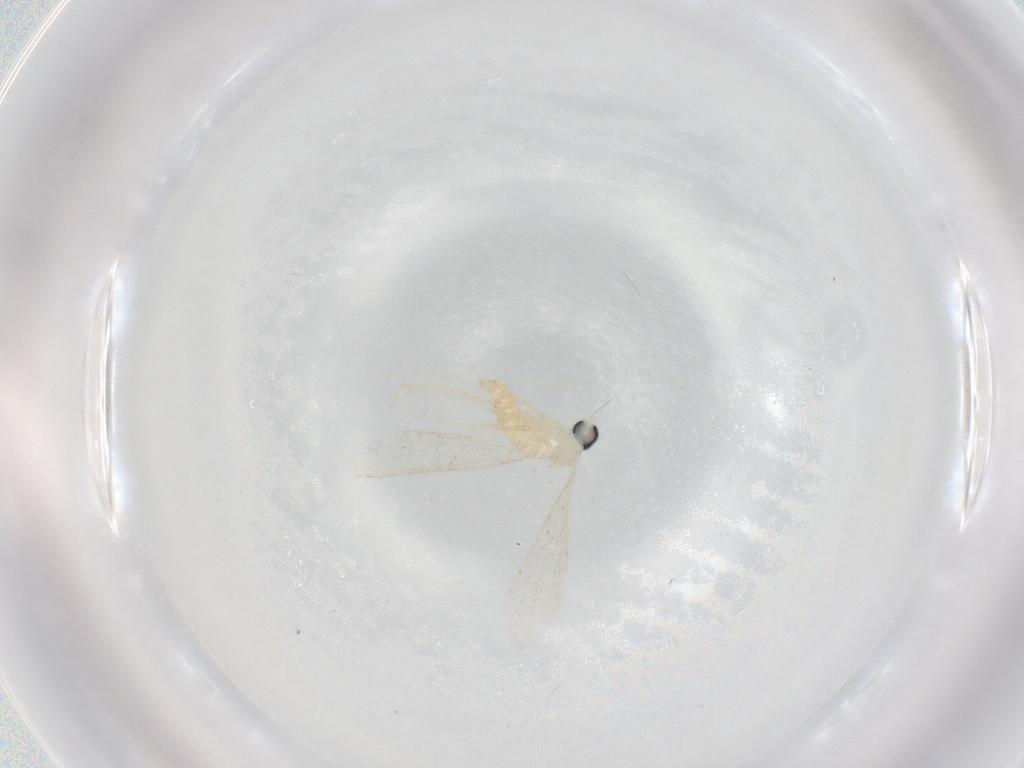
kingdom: Animalia
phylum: Arthropoda
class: Insecta
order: Diptera
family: Cecidomyiidae
